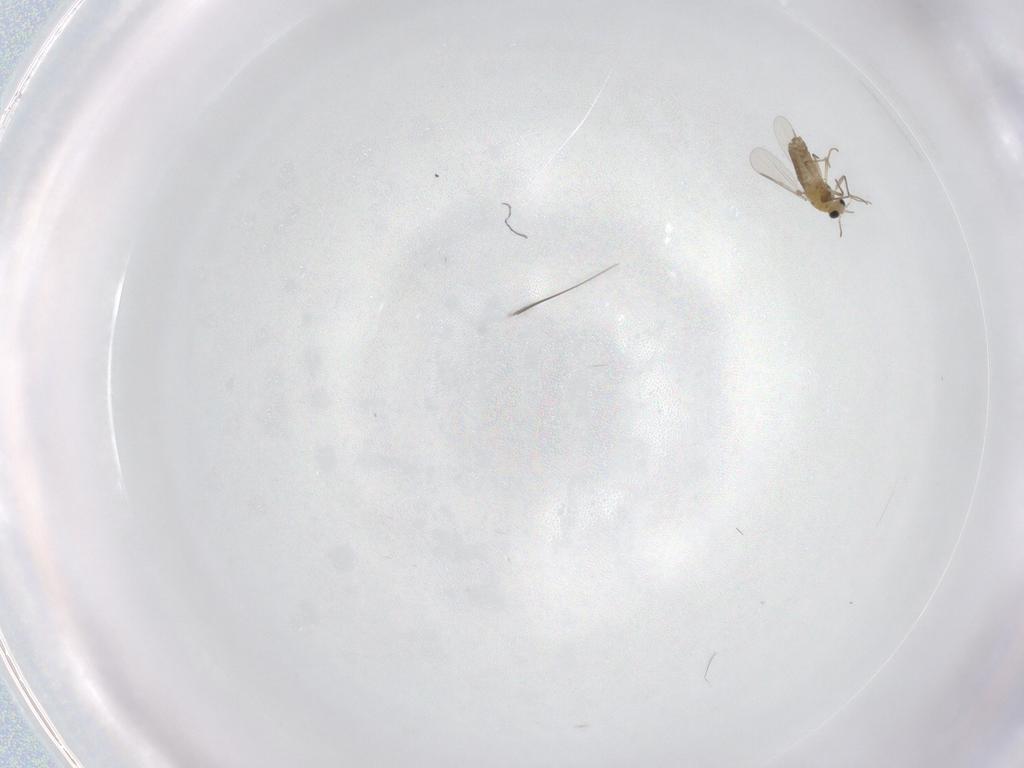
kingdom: Animalia
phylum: Arthropoda
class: Insecta
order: Diptera
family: Chironomidae
